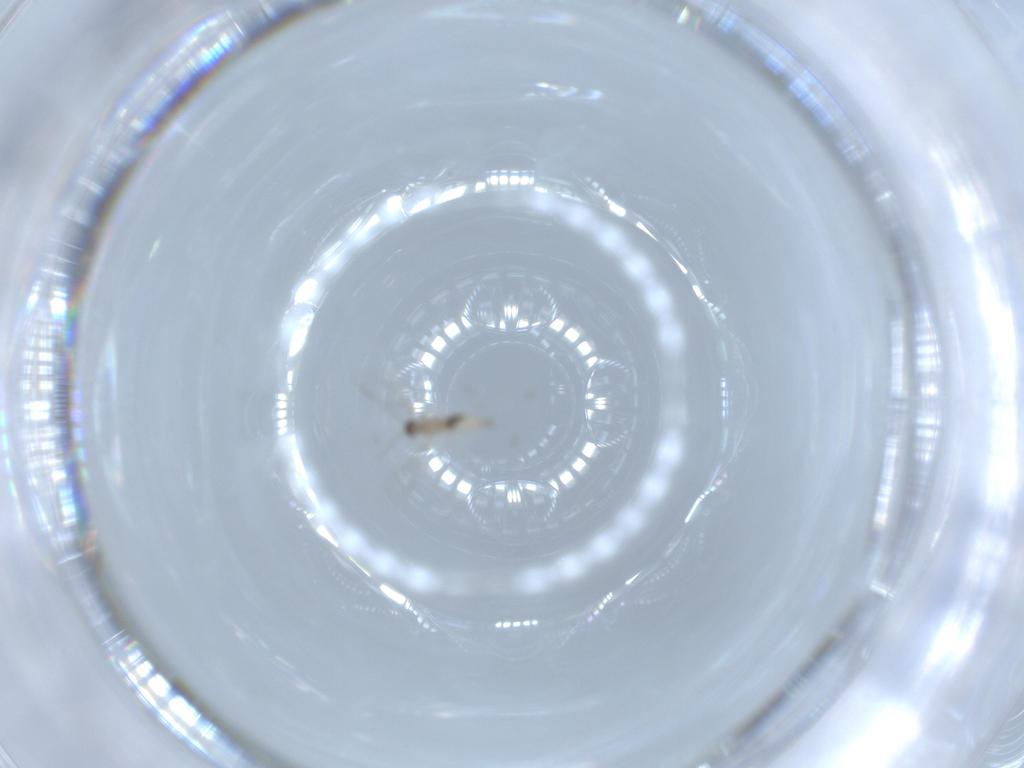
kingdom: Animalia
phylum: Arthropoda
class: Insecta
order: Diptera
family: Cecidomyiidae
